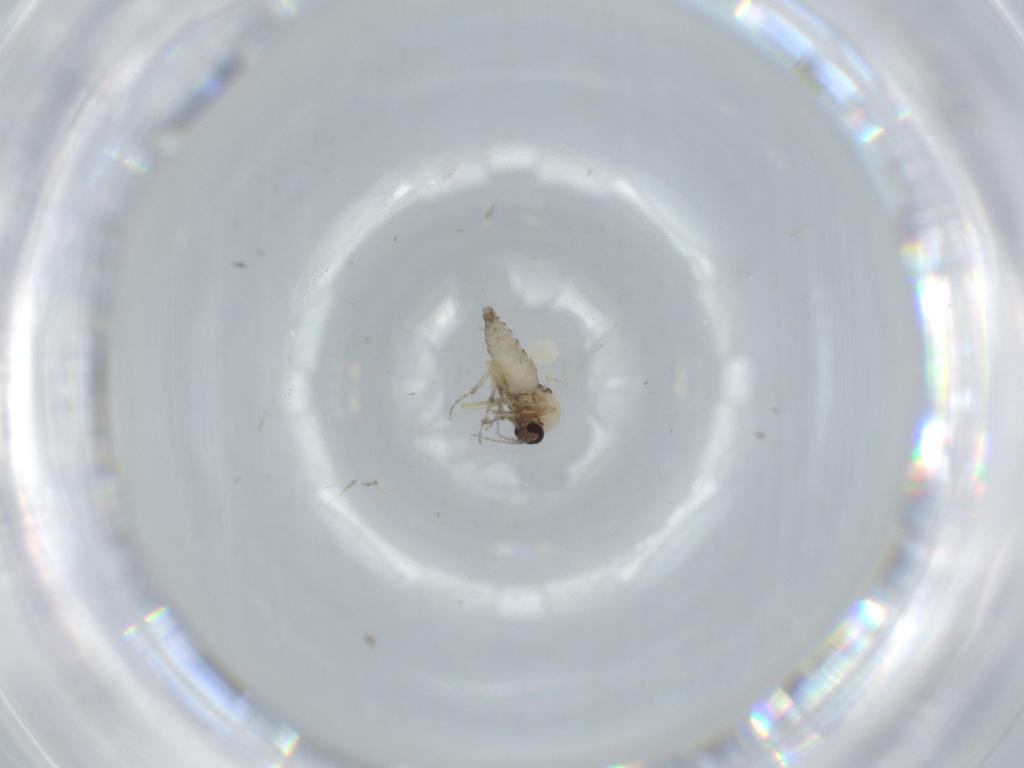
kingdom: Animalia
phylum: Arthropoda
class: Insecta
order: Diptera
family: Ceratopogonidae
